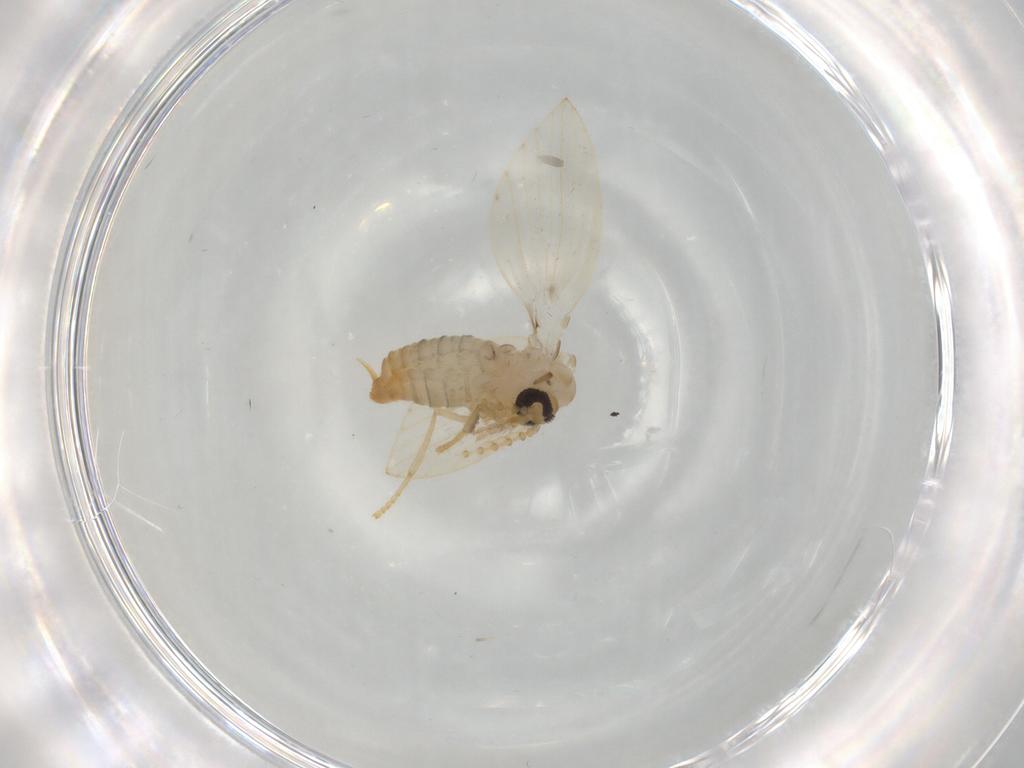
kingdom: Animalia
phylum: Arthropoda
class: Insecta
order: Diptera
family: Psychodidae
